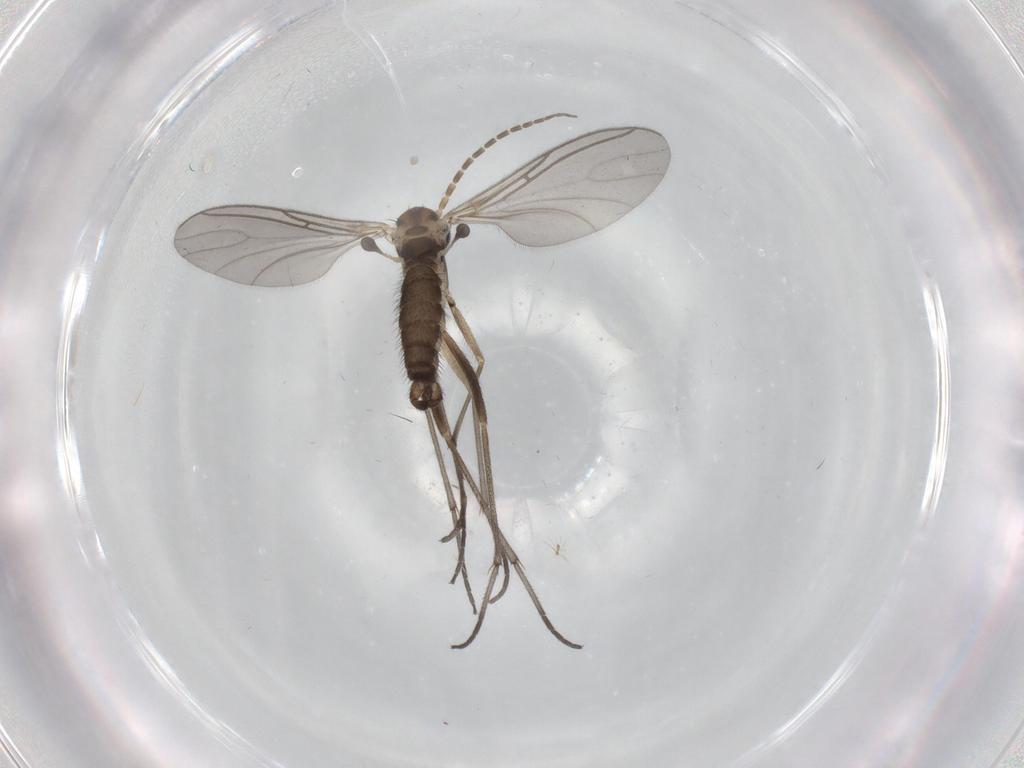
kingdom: Animalia
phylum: Arthropoda
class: Insecta
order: Diptera
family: Sciaridae
